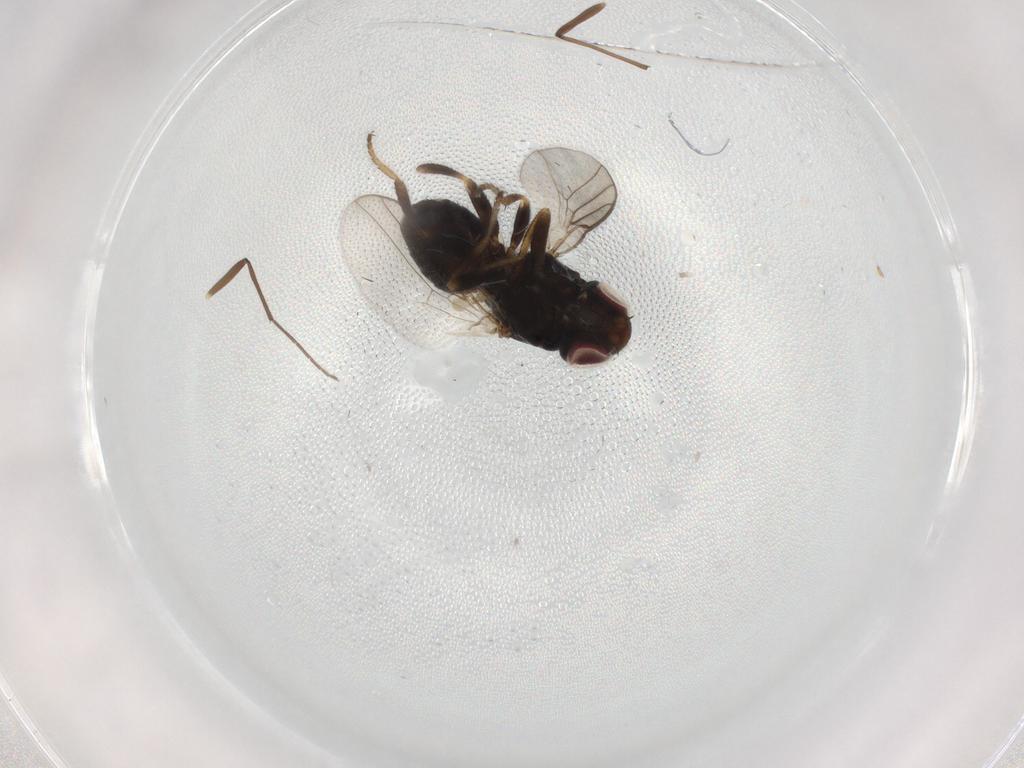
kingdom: Animalia
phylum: Arthropoda
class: Insecta
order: Diptera
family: Chloropidae
